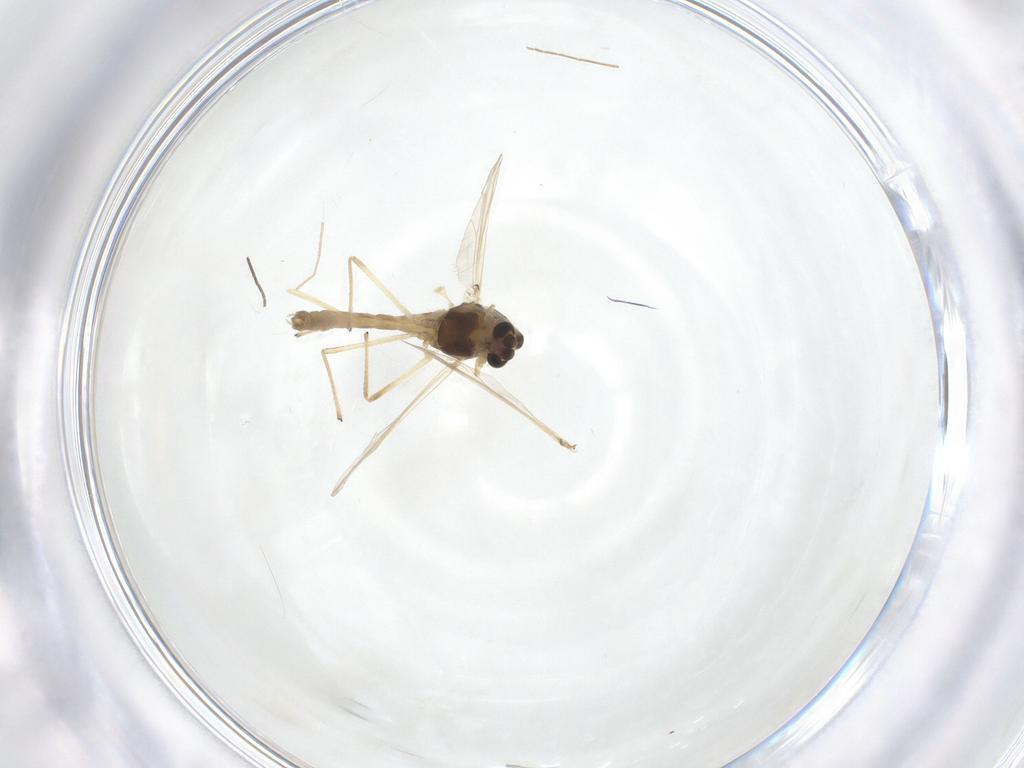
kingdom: Animalia
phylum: Arthropoda
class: Insecta
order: Diptera
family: Chironomidae
